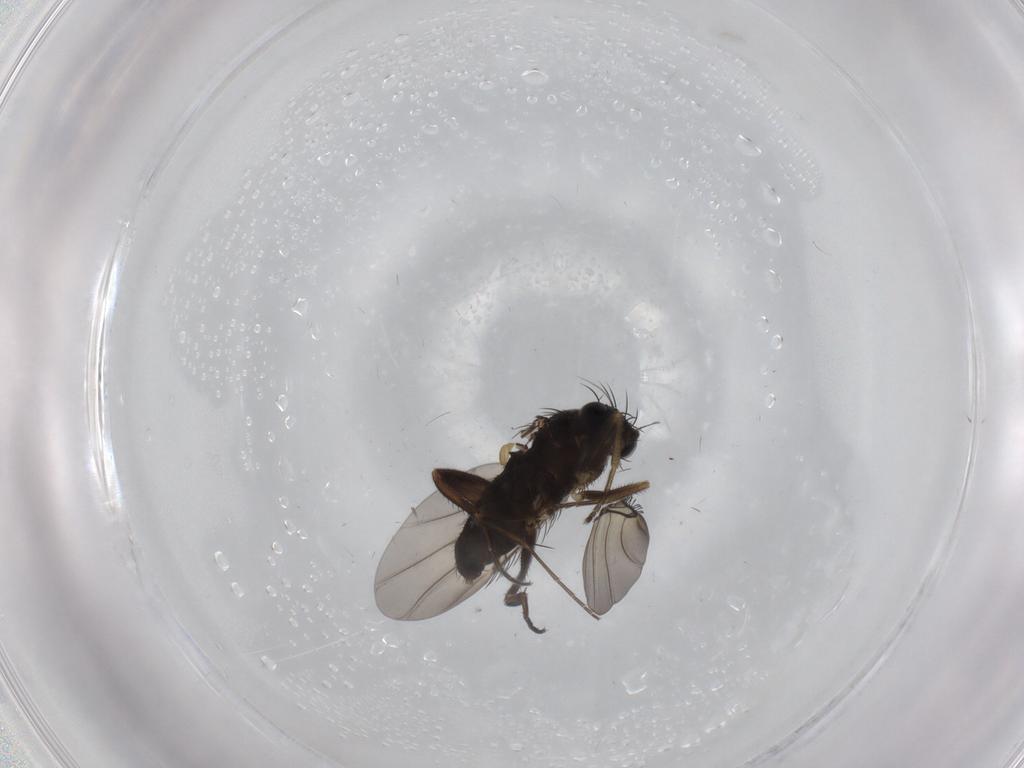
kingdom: Animalia
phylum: Arthropoda
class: Insecta
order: Diptera
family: Phoridae
